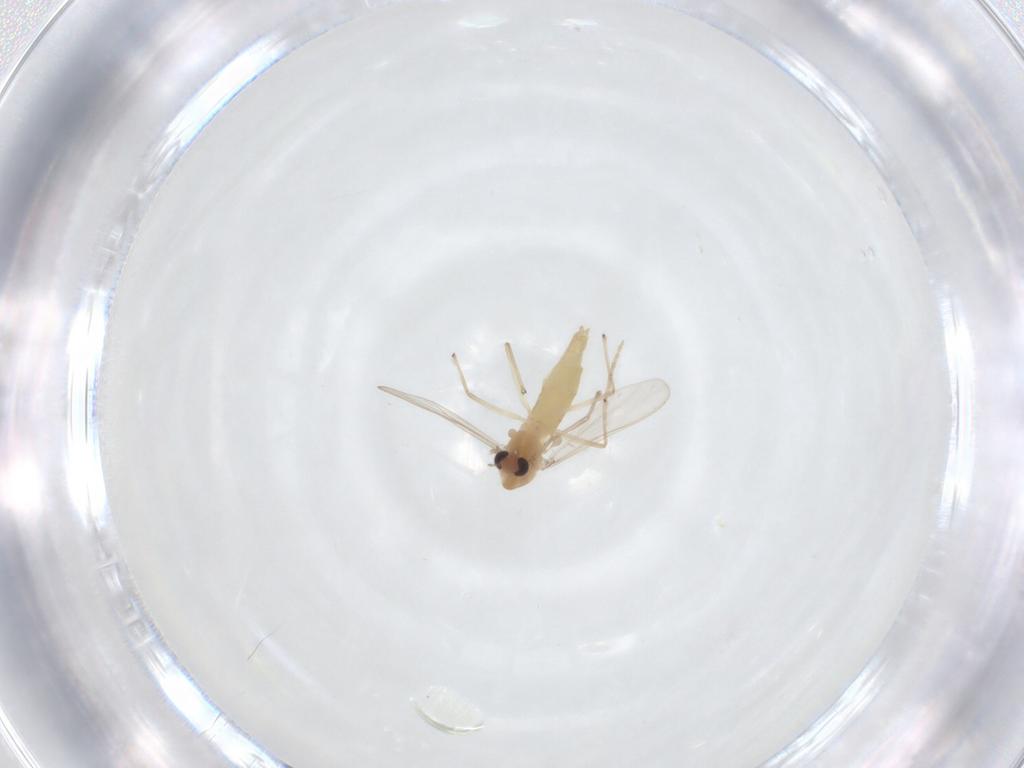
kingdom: Animalia
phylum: Arthropoda
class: Insecta
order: Diptera
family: Chironomidae
